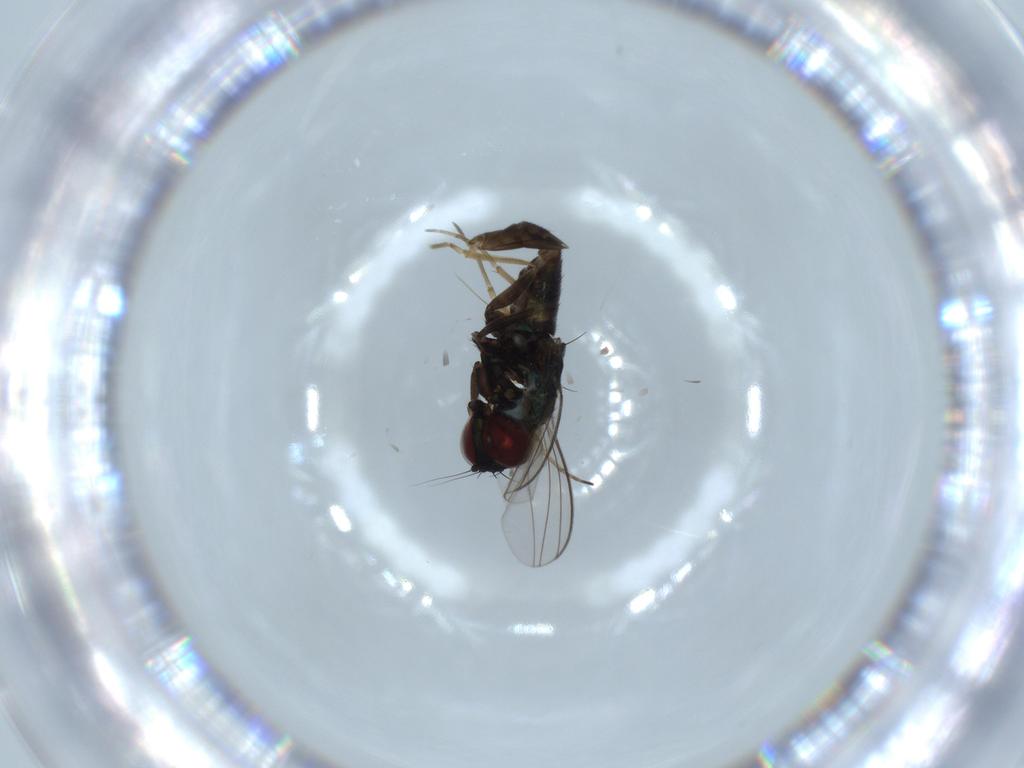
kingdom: Animalia
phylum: Arthropoda
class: Insecta
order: Diptera
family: Dolichopodidae
